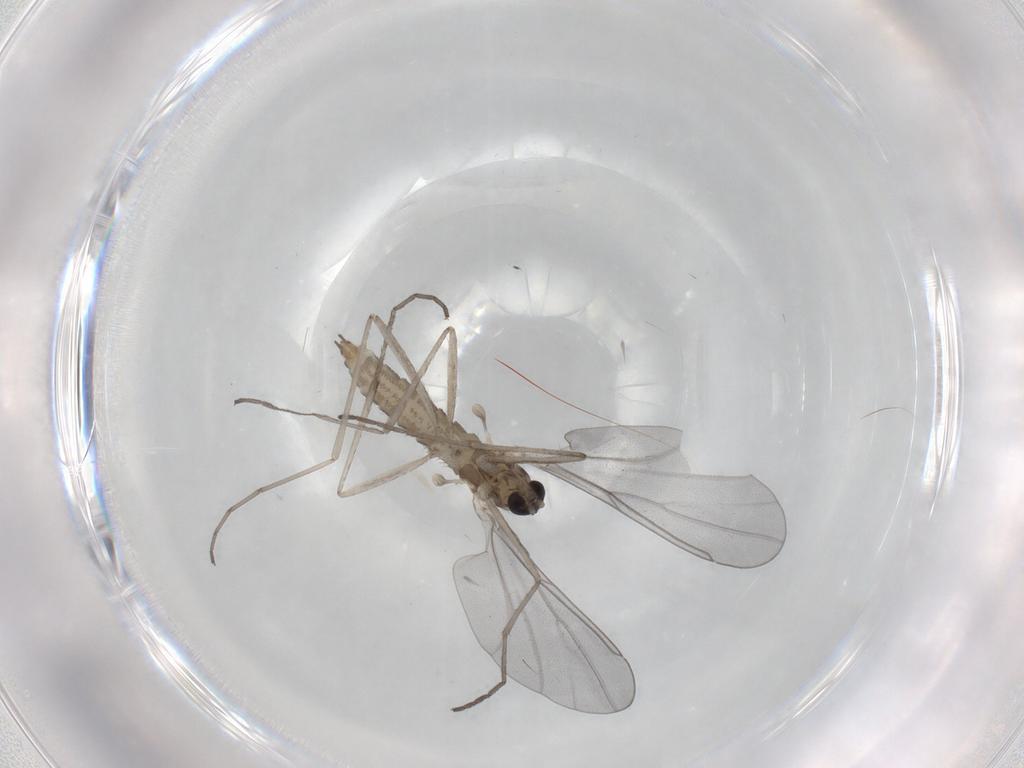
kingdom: Animalia
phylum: Arthropoda
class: Insecta
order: Diptera
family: Cecidomyiidae
